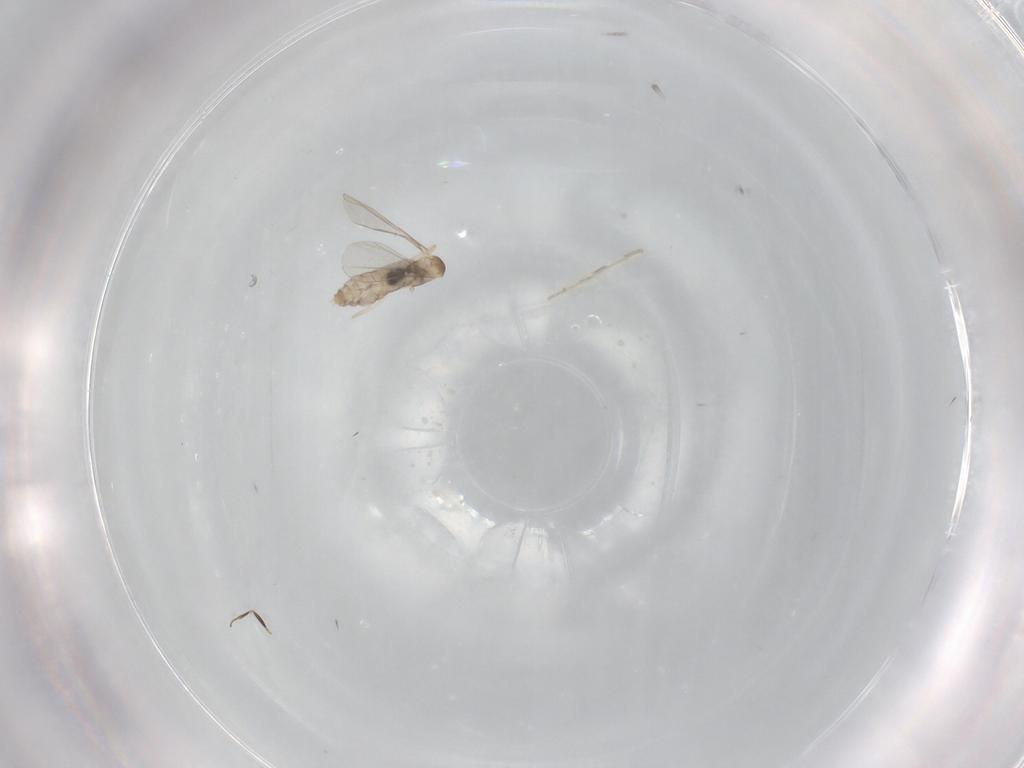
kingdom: Animalia
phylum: Arthropoda
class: Insecta
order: Diptera
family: Cecidomyiidae
